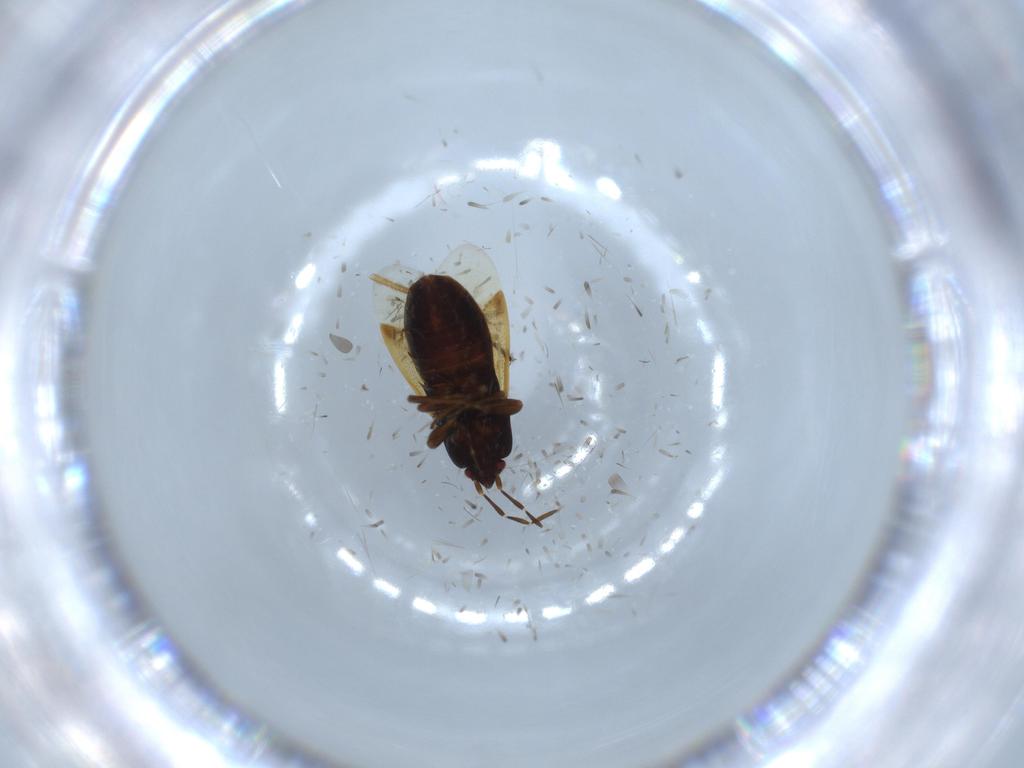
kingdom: Animalia
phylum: Arthropoda
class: Insecta
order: Hemiptera
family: Rhyparochromidae
